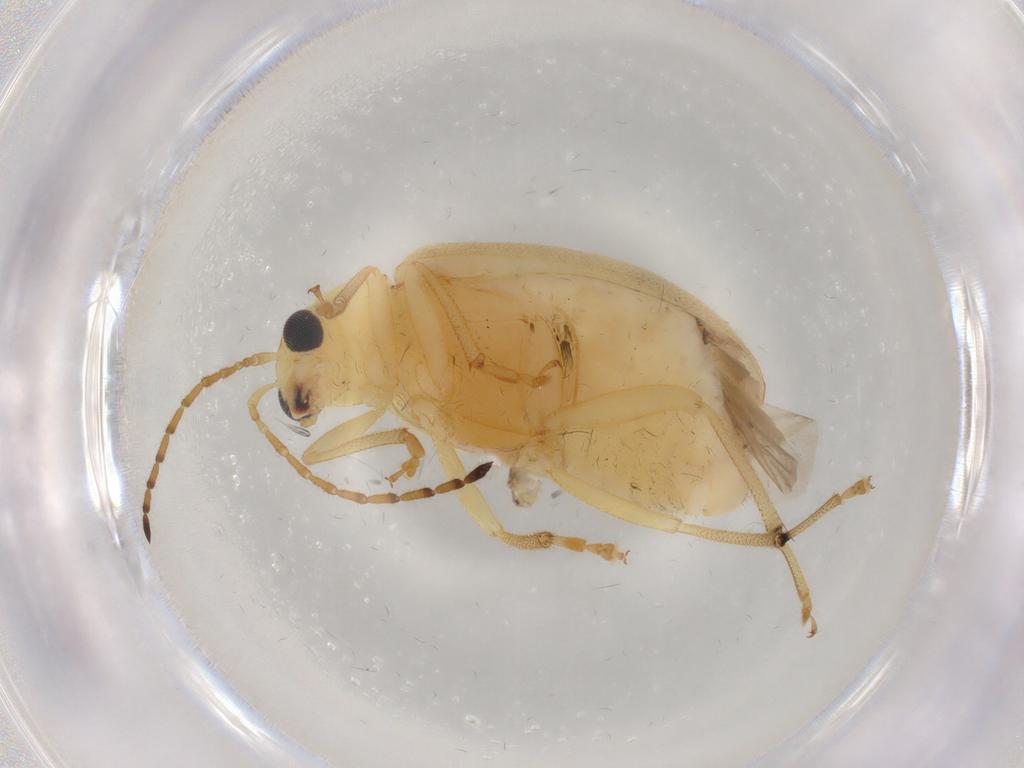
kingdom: Animalia
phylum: Arthropoda
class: Insecta
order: Coleoptera
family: Chrysomelidae
